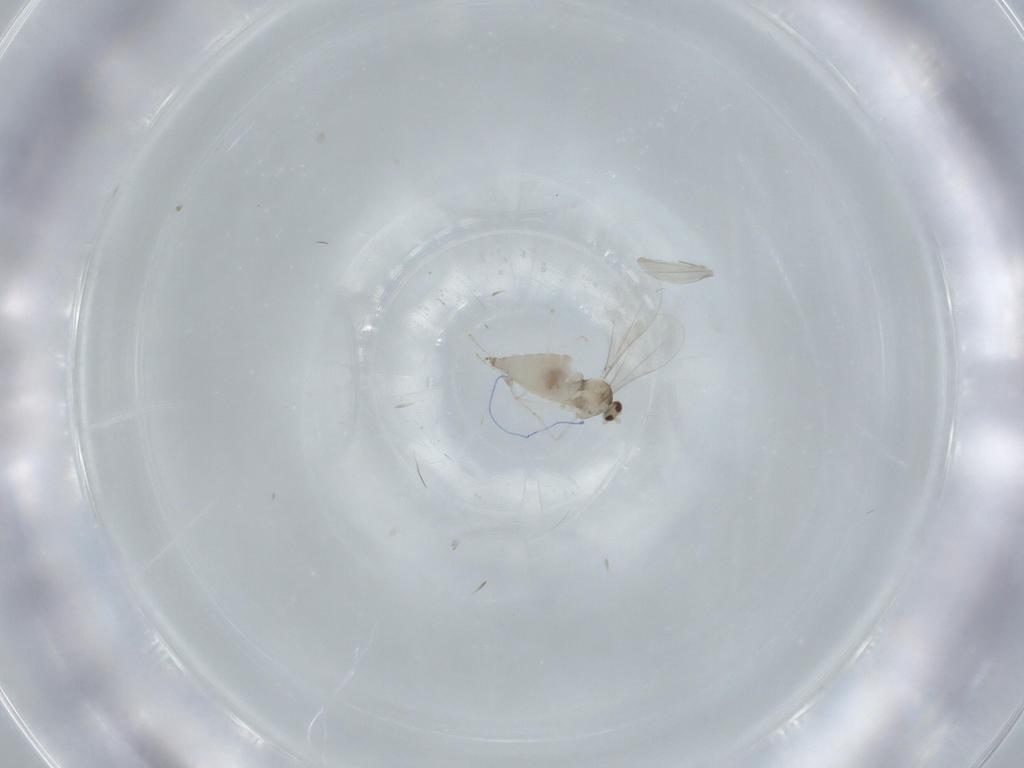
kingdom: Animalia
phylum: Arthropoda
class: Insecta
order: Diptera
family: Cecidomyiidae
